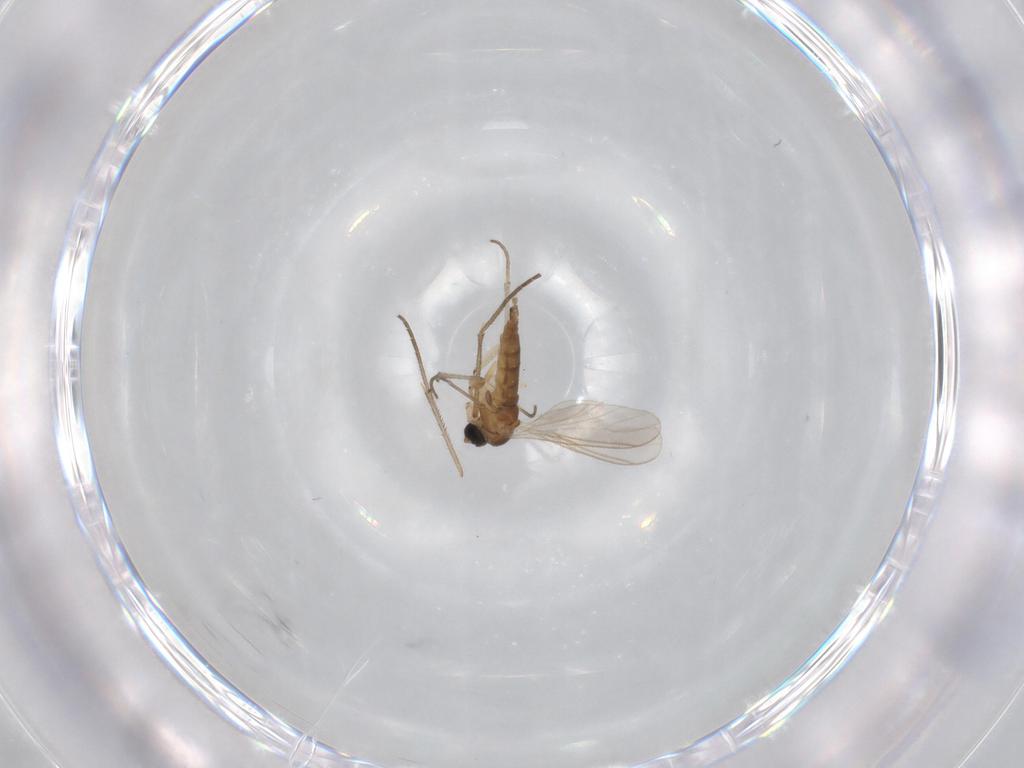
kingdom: Animalia
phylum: Arthropoda
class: Insecta
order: Diptera
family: Sciaridae
